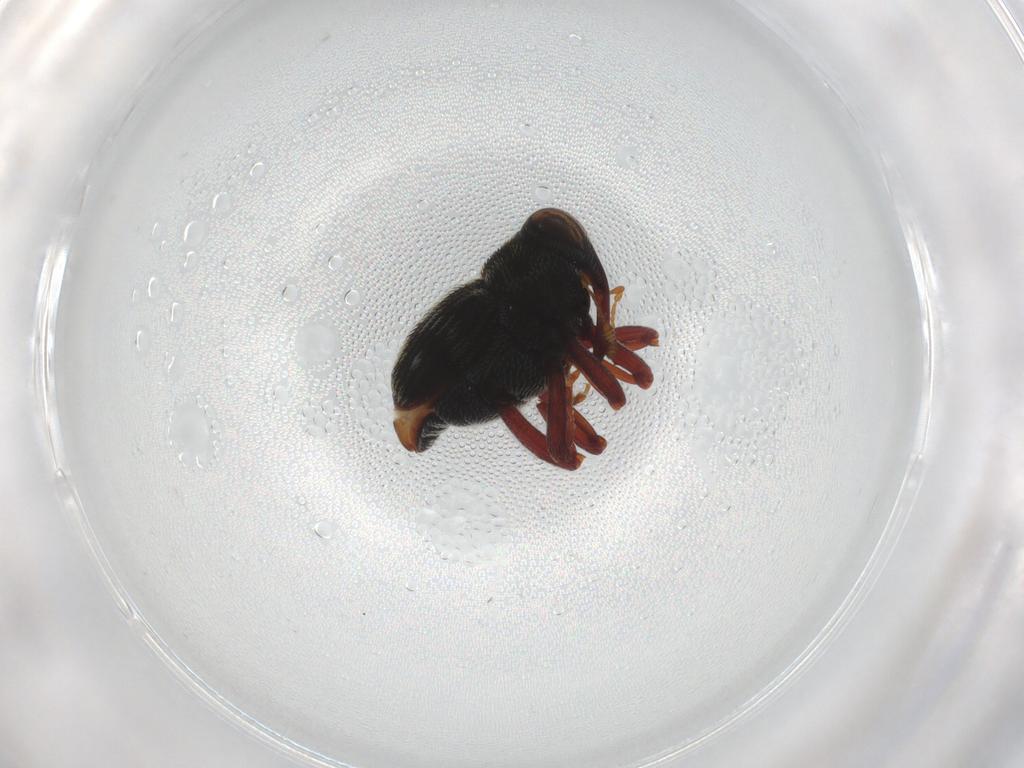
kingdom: Animalia
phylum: Arthropoda
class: Insecta
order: Coleoptera
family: Curculionidae
